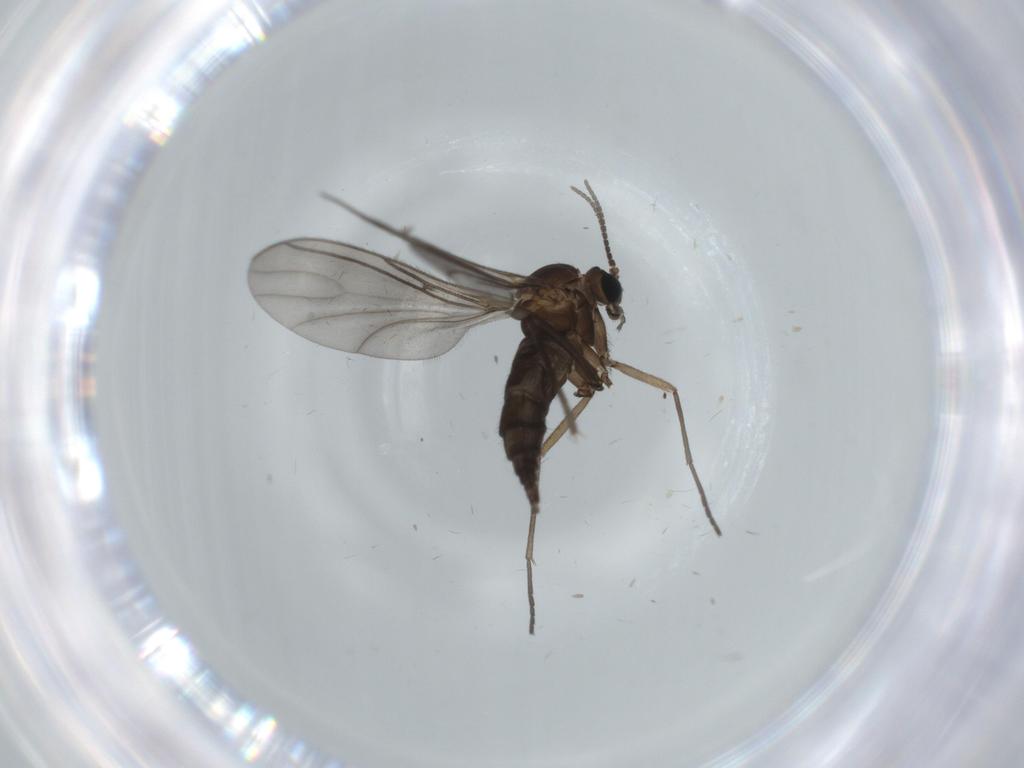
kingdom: Animalia
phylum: Arthropoda
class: Insecta
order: Diptera
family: Sciaridae
